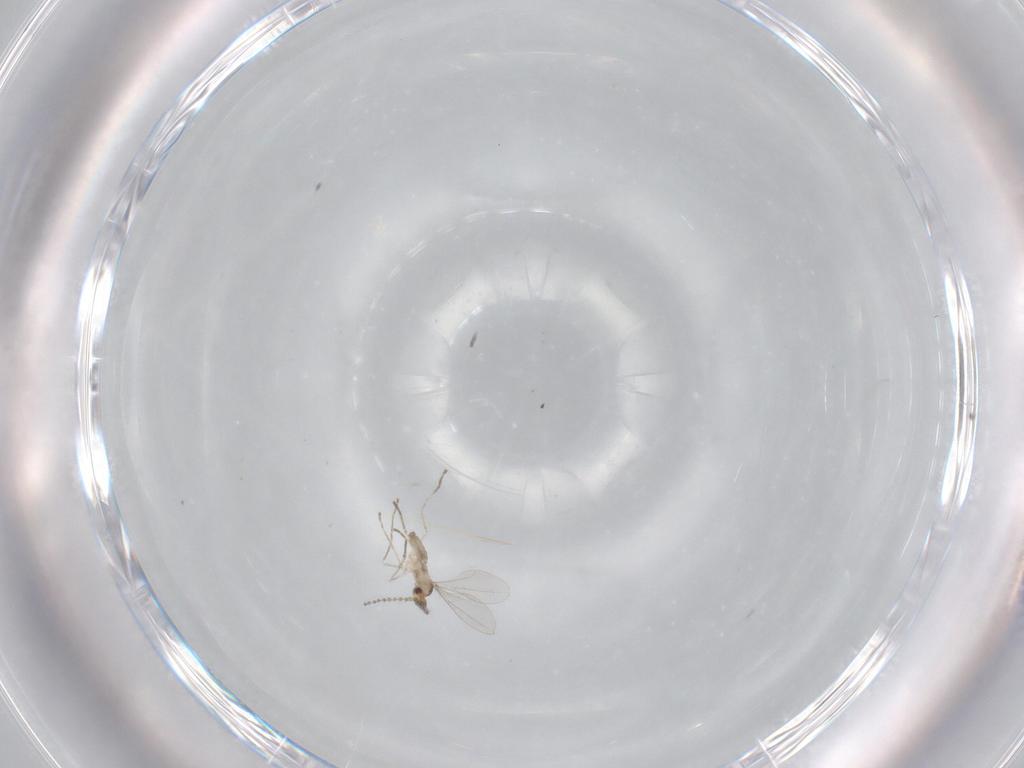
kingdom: Animalia
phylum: Arthropoda
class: Insecta
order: Diptera
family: Cecidomyiidae
